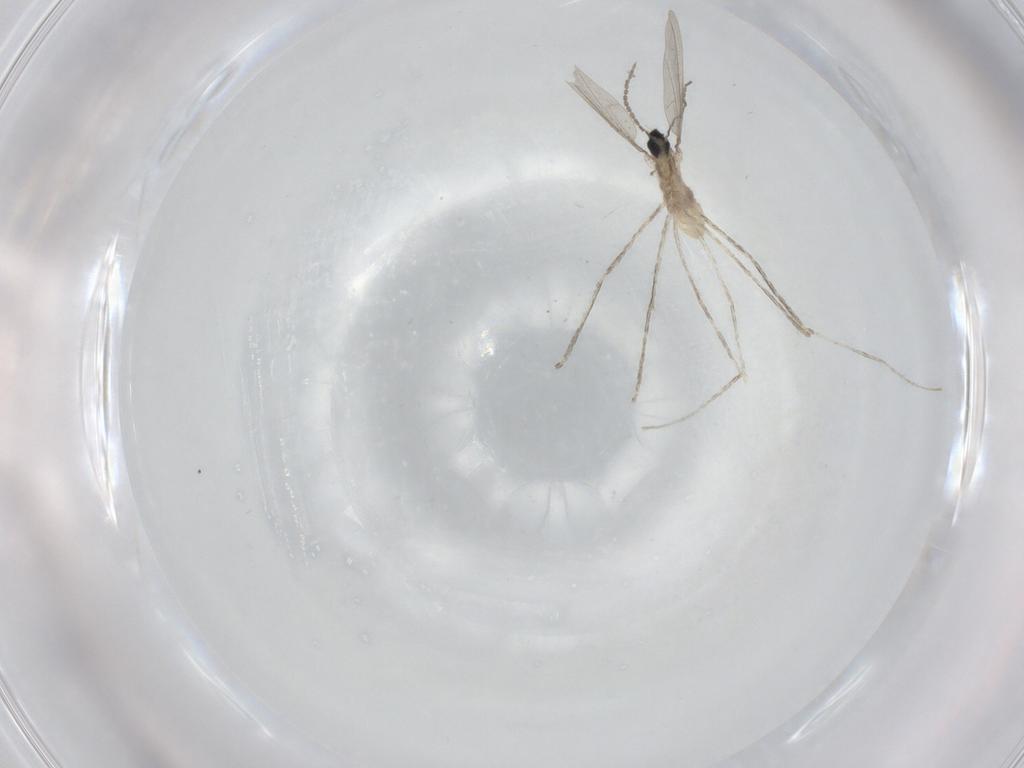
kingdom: Animalia
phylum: Arthropoda
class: Insecta
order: Diptera
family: Cecidomyiidae
